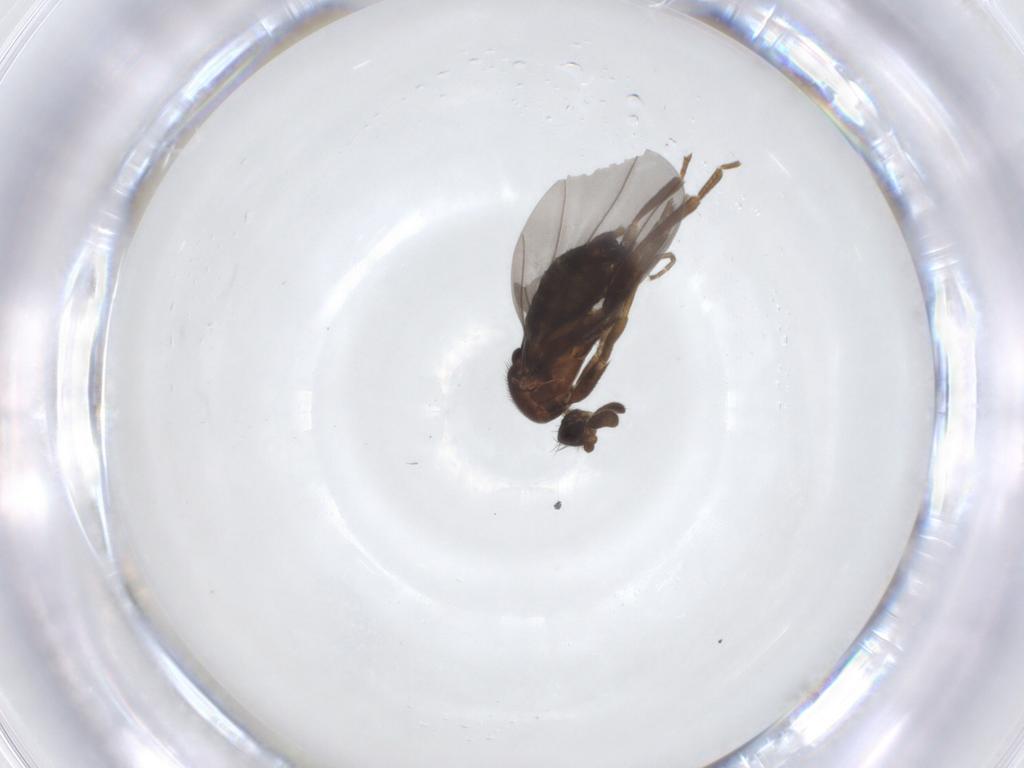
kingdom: Animalia
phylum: Arthropoda
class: Insecta
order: Diptera
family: Sciaridae
